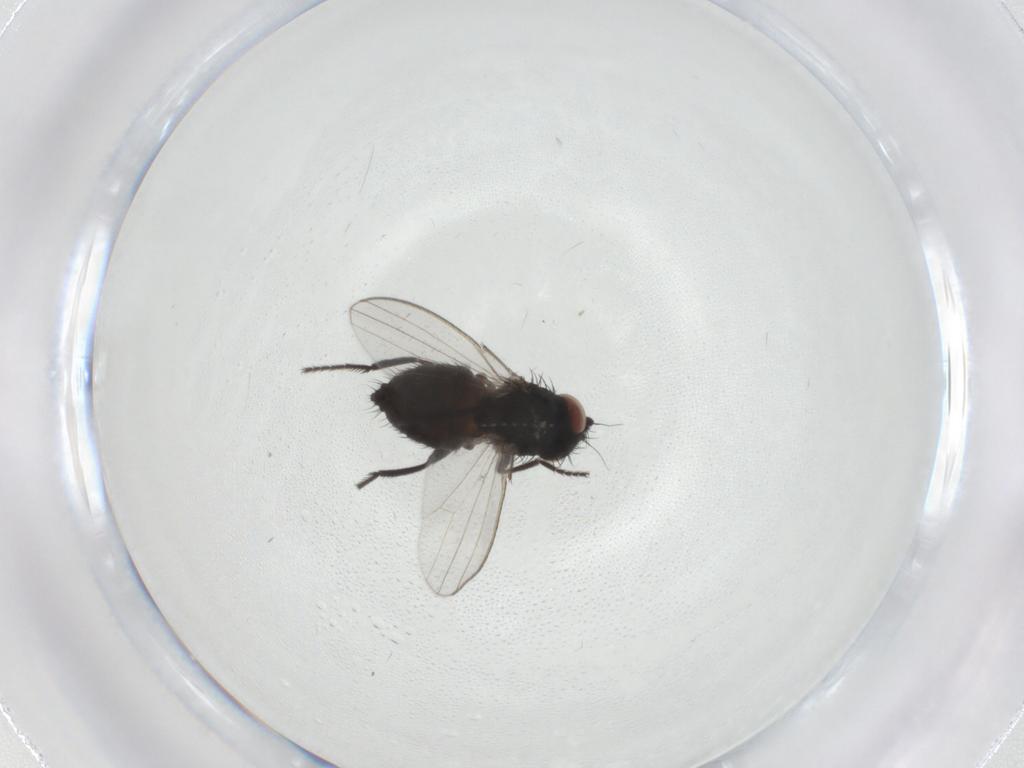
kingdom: Animalia
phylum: Arthropoda
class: Insecta
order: Diptera
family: Milichiidae
